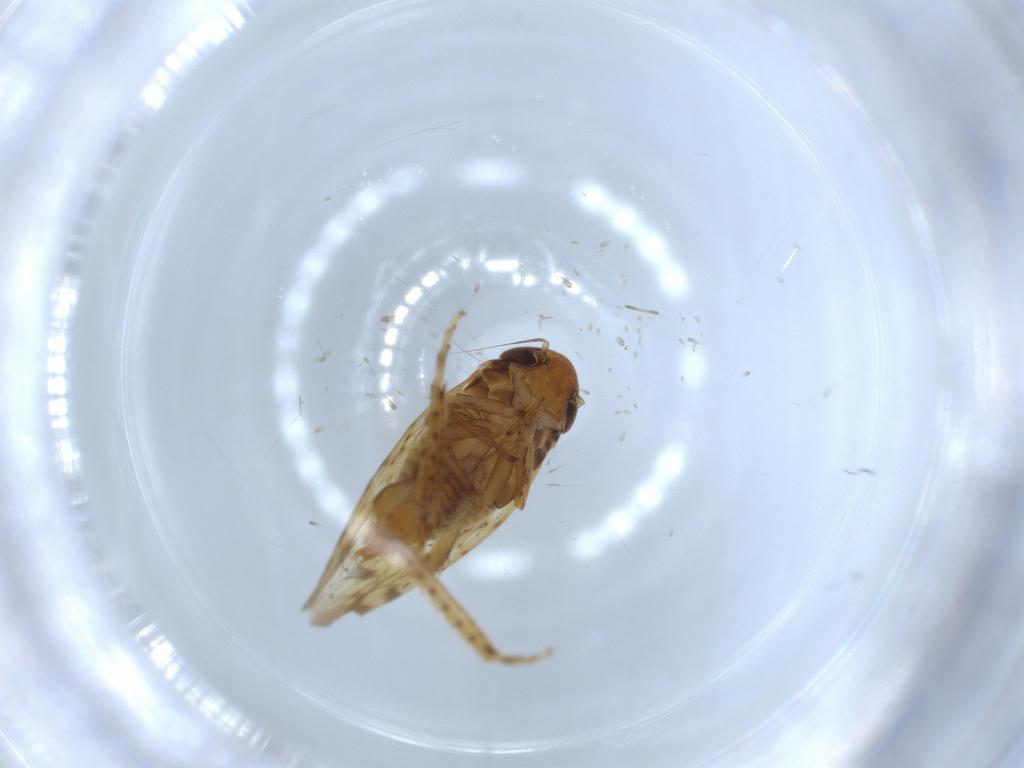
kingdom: Animalia
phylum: Arthropoda
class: Insecta
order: Hemiptera
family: Cicadellidae
